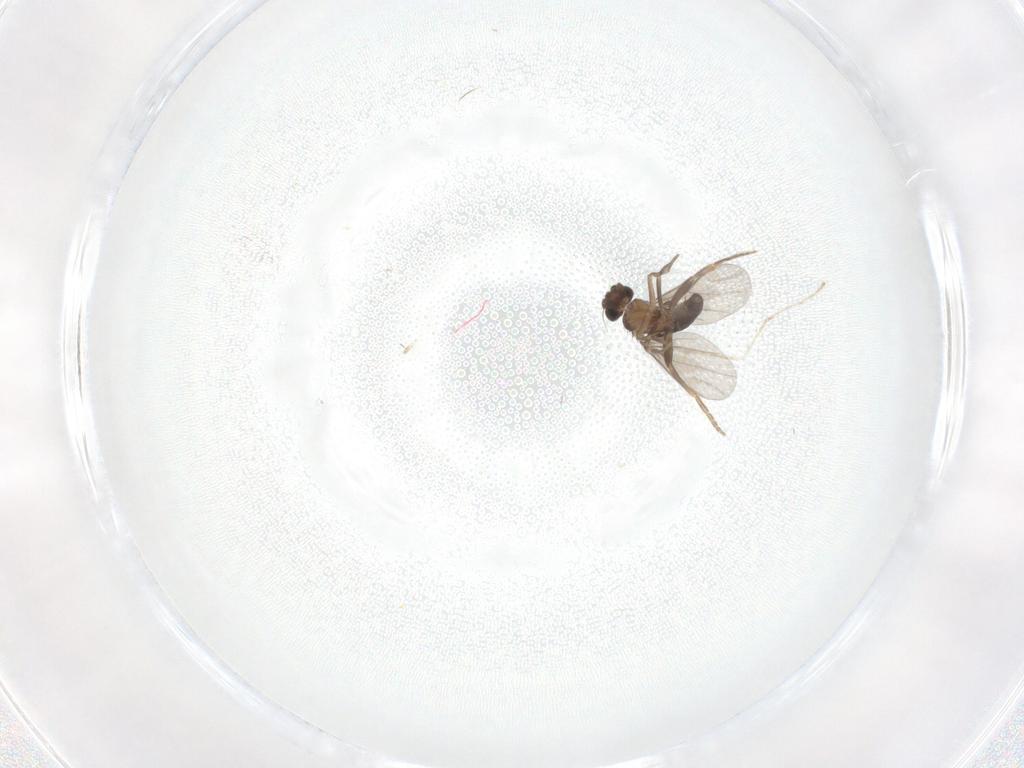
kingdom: Animalia
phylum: Arthropoda
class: Insecta
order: Diptera
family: Chironomidae
